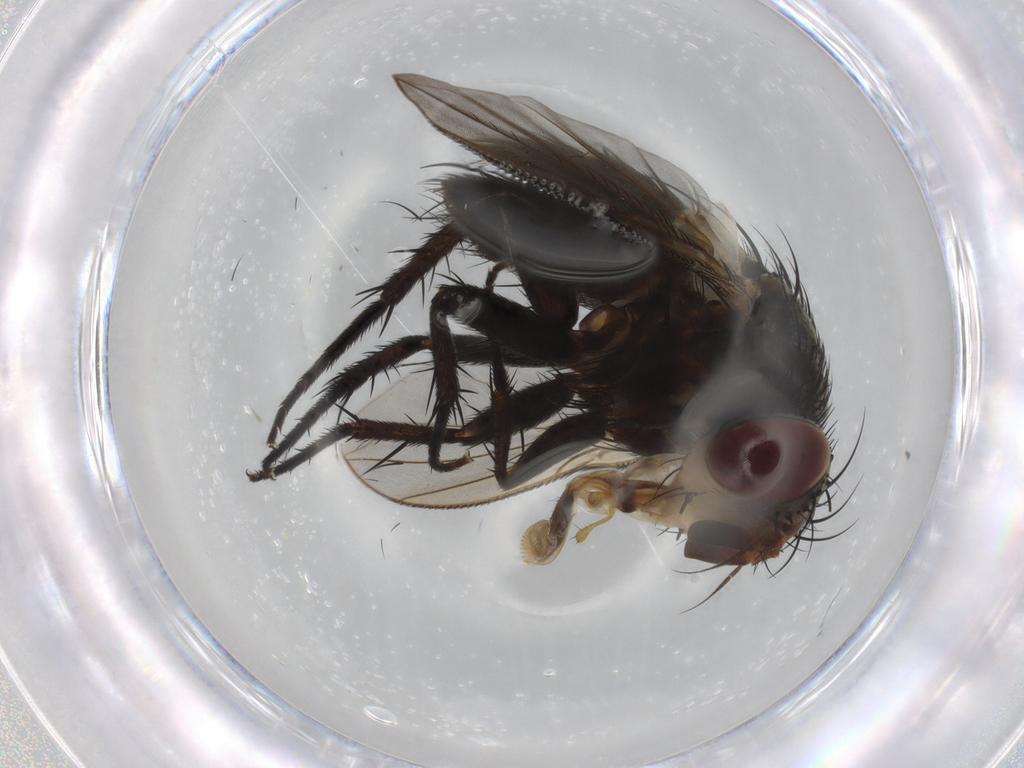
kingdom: Animalia
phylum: Arthropoda
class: Insecta
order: Diptera
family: Tachinidae
